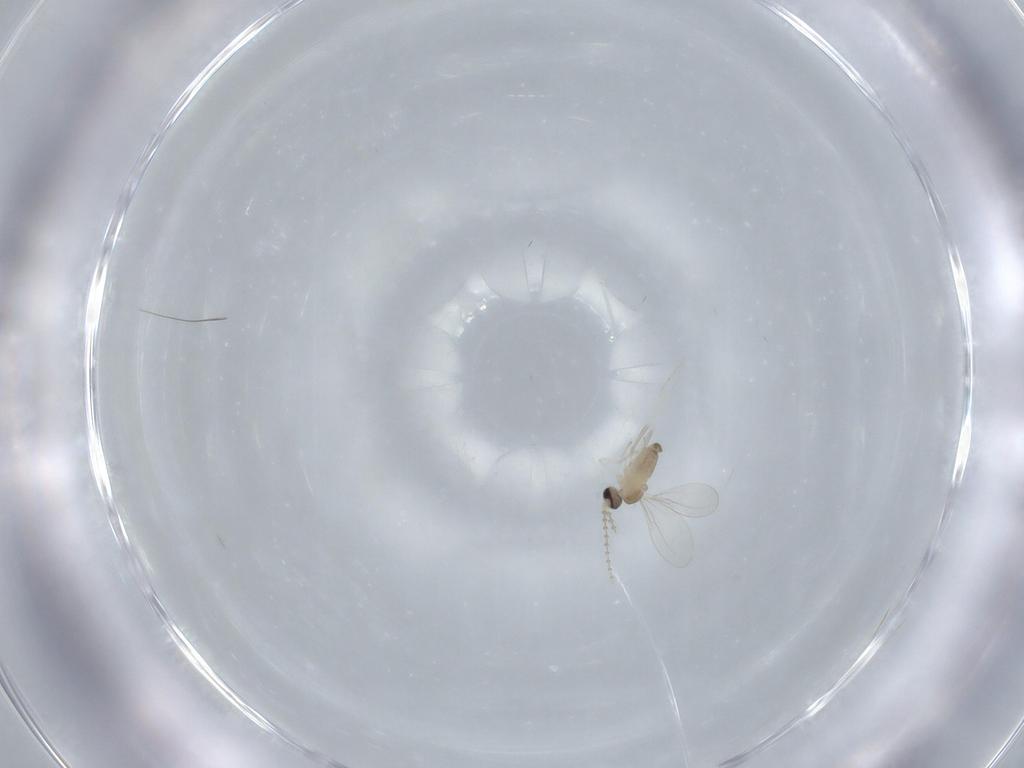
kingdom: Animalia
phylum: Arthropoda
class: Insecta
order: Diptera
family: Cecidomyiidae
